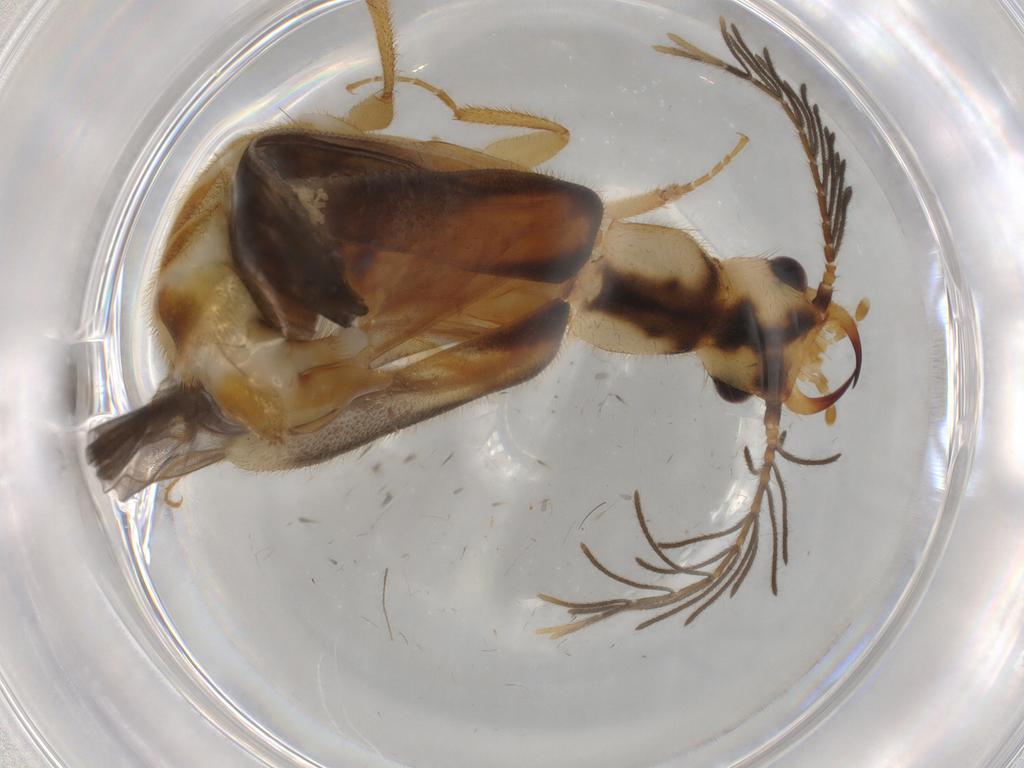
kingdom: Animalia
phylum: Arthropoda
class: Insecta
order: Coleoptera
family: Phengodidae
